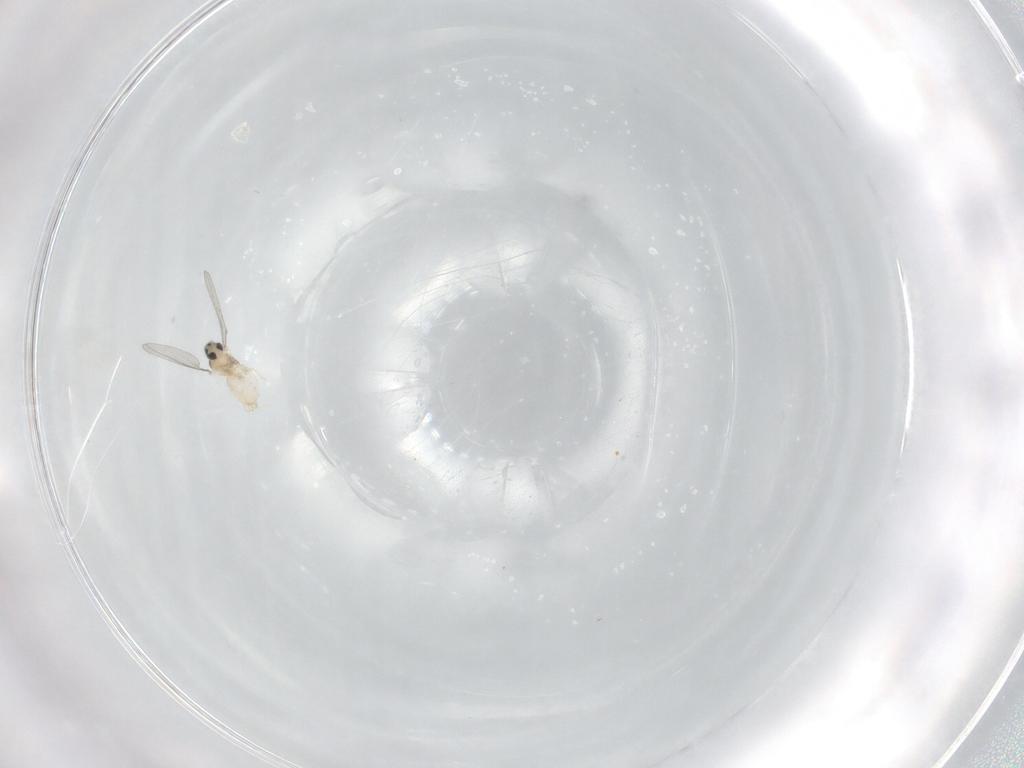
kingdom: Animalia
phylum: Arthropoda
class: Insecta
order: Diptera
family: Cecidomyiidae
